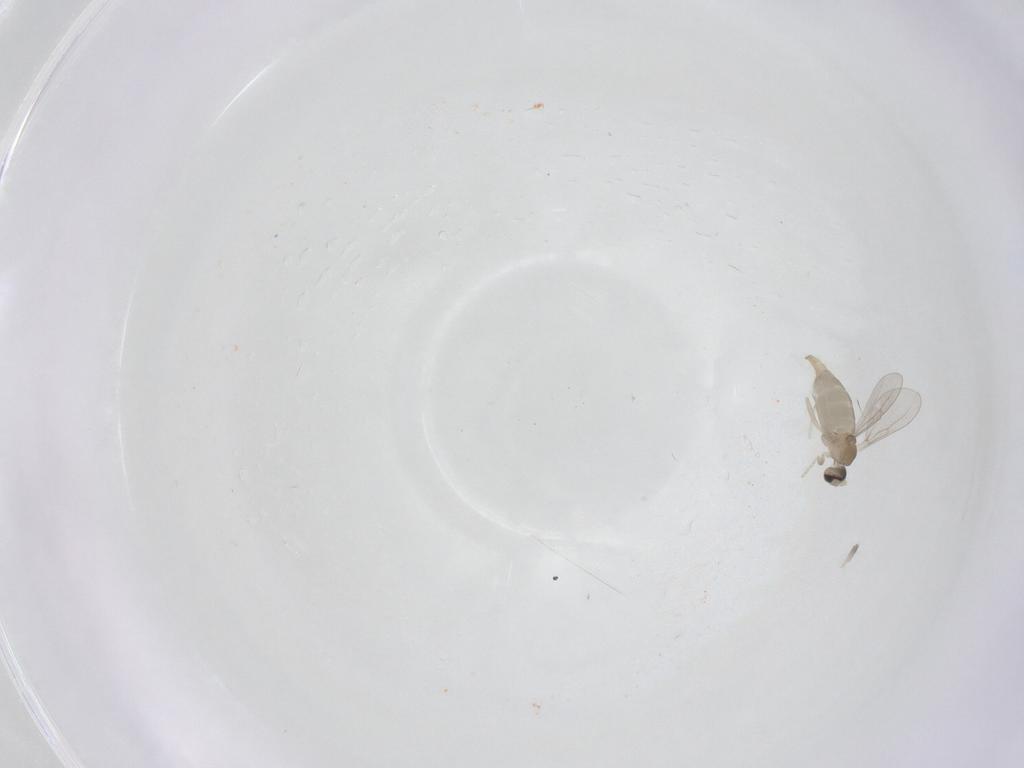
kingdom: Animalia
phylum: Arthropoda
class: Insecta
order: Diptera
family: Cecidomyiidae
